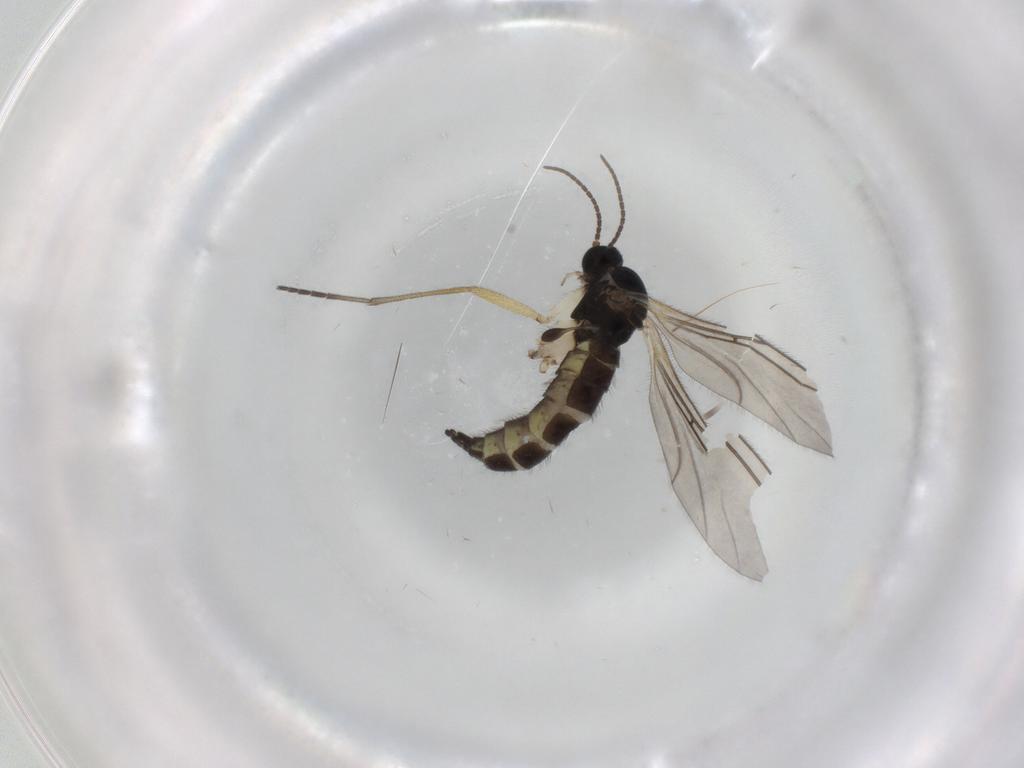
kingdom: Animalia
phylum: Arthropoda
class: Insecta
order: Diptera
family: Sciaridae
